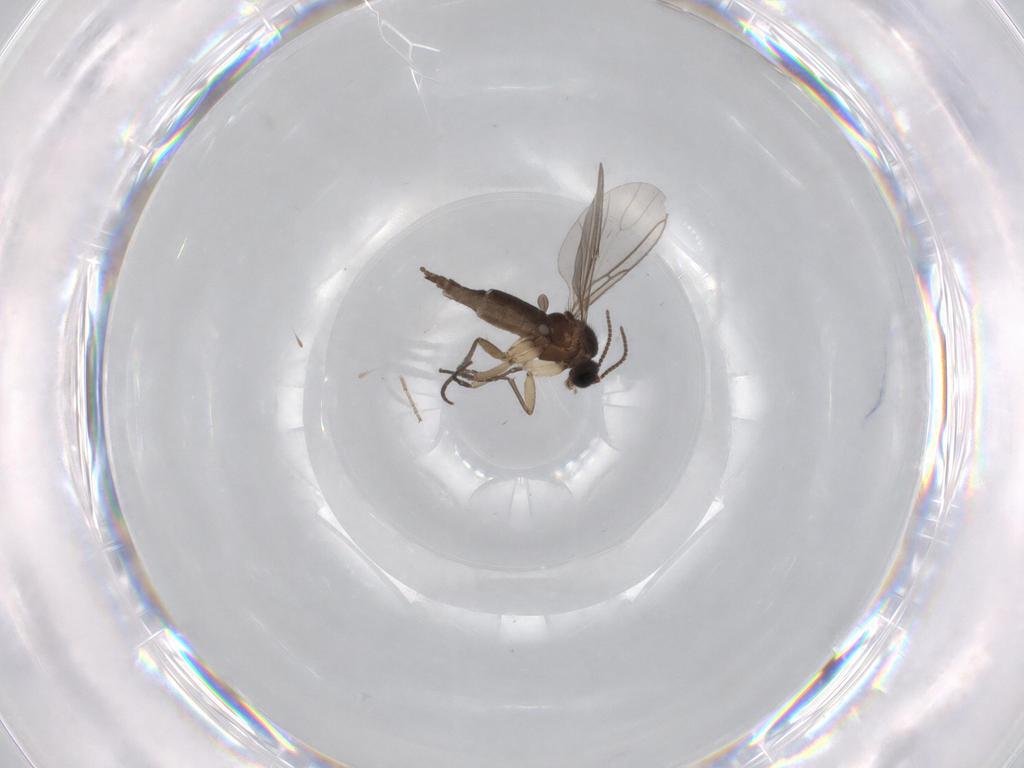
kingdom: Animalia
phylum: Arthropoda
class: Insecta
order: Diptera
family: Sciaridae
